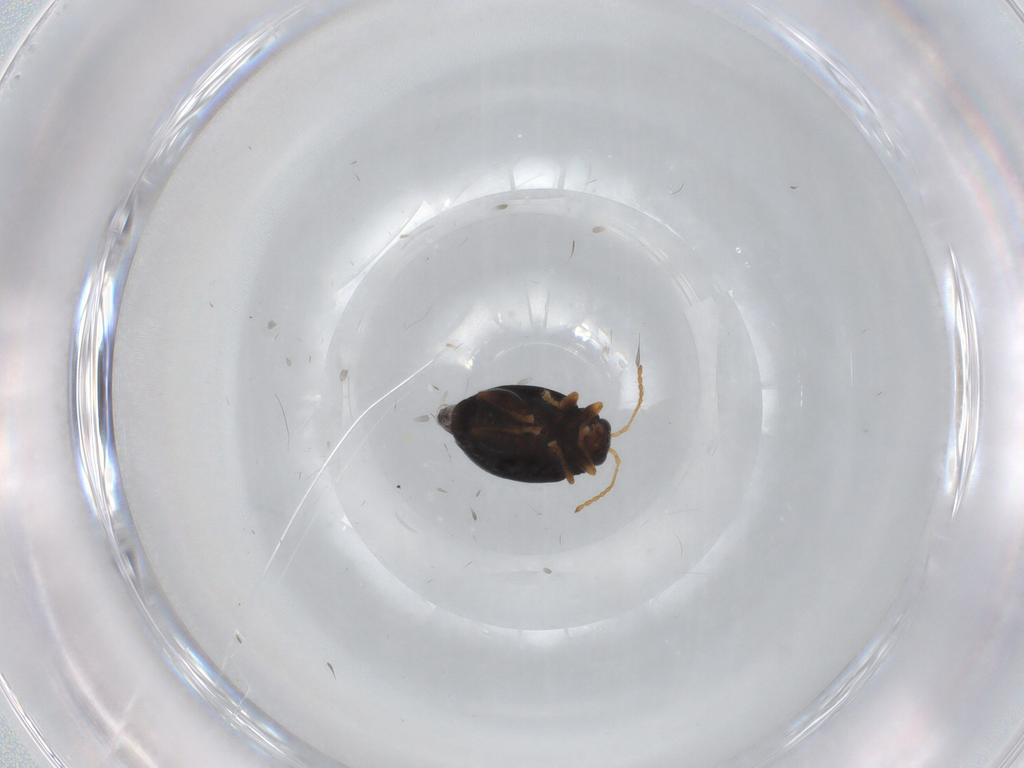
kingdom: Animalia
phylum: Arthropoda
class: Insecta
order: Coleoptera
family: Chrysomelidae
